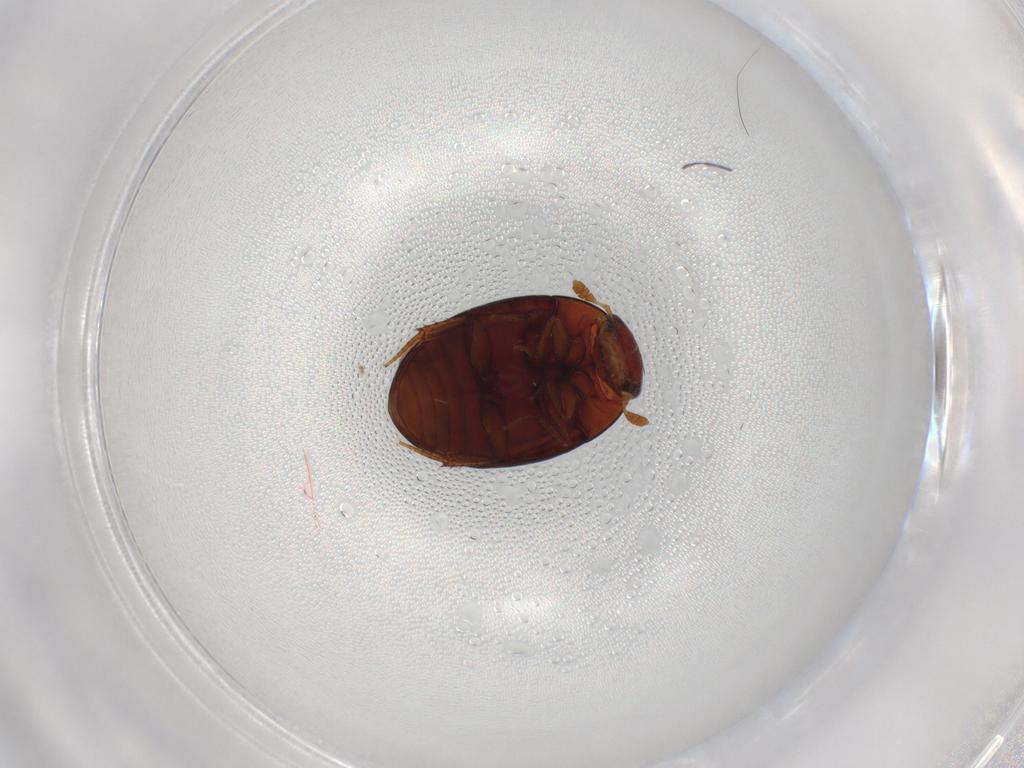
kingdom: Animalia
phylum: Arthropoda
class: Insecta
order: Coleoptera
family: Hydrophilidae
